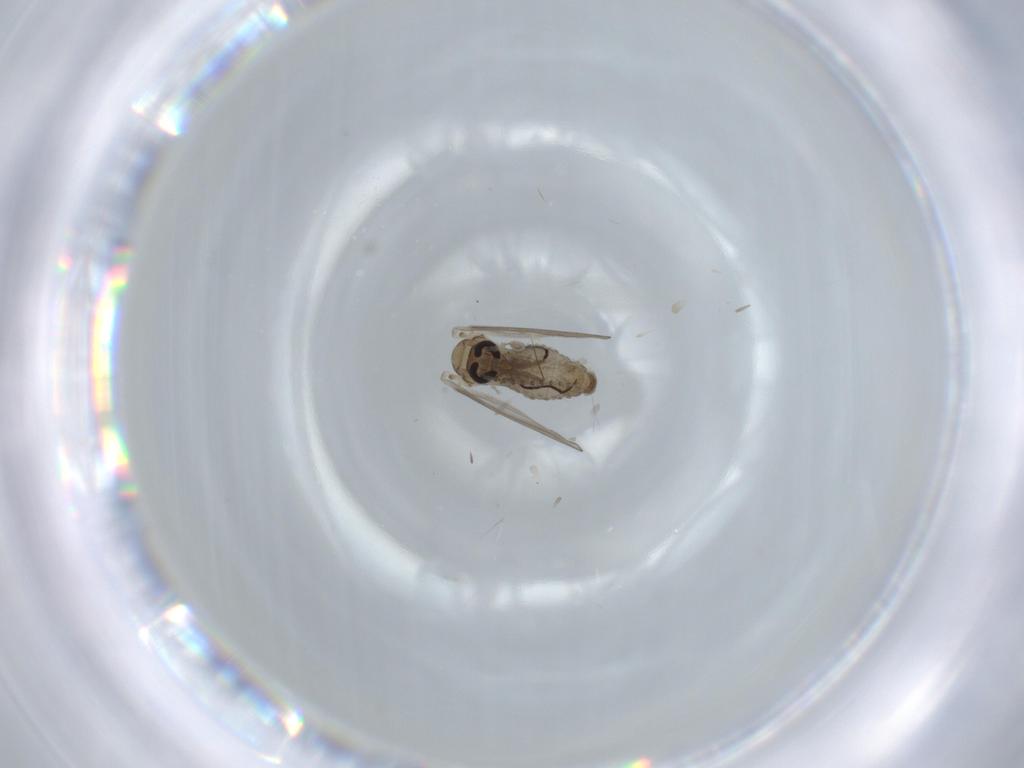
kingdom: Animalia
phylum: Arthropoda
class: Insecta
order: Diptera
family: Psychodidae
